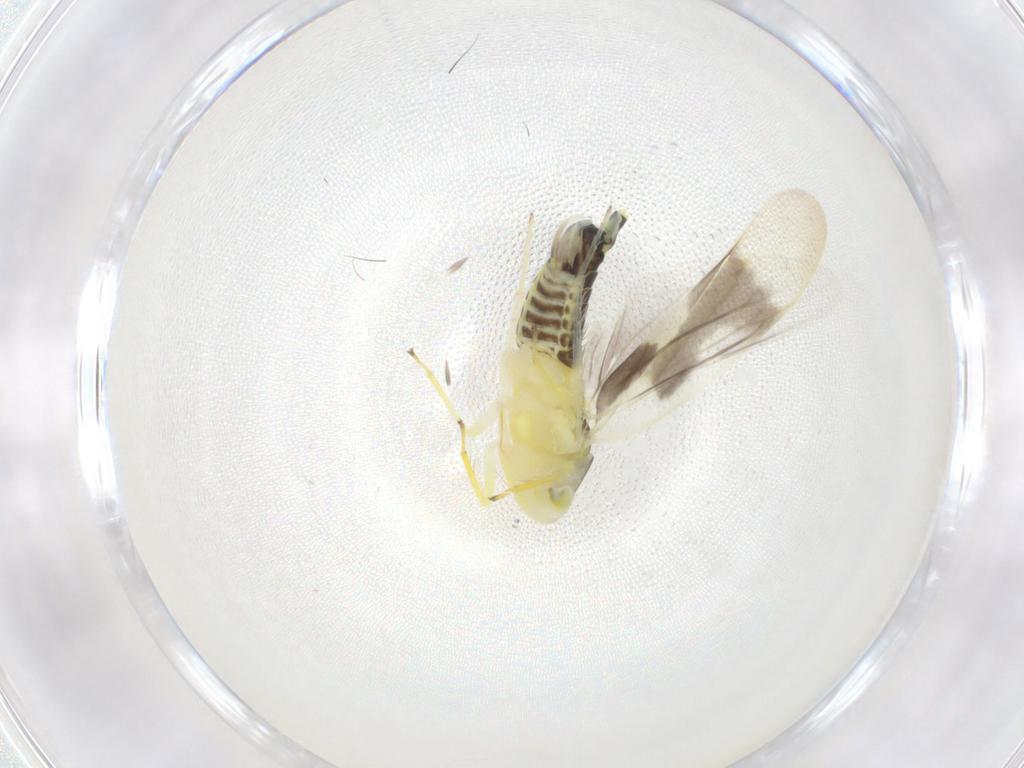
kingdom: Animalia
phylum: Arthropoda
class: Insecta
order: Hemiptera
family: Cicadellidae
